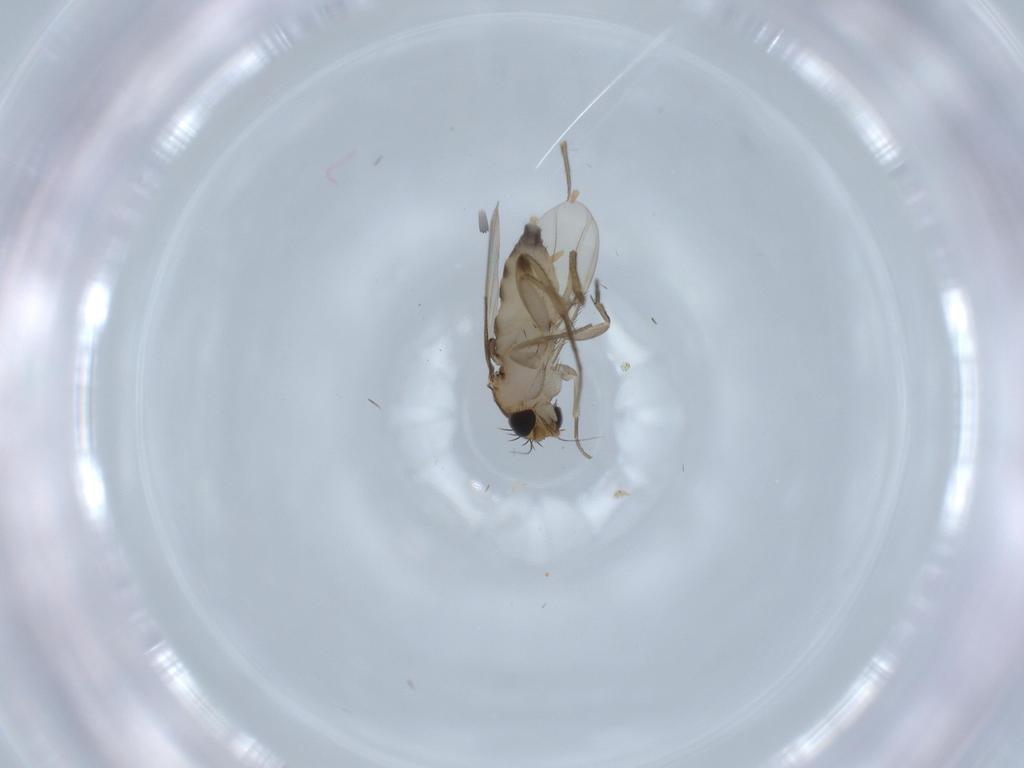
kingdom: Animalia
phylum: Arthropoda
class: Insecta
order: Diptera
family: Phoridae
